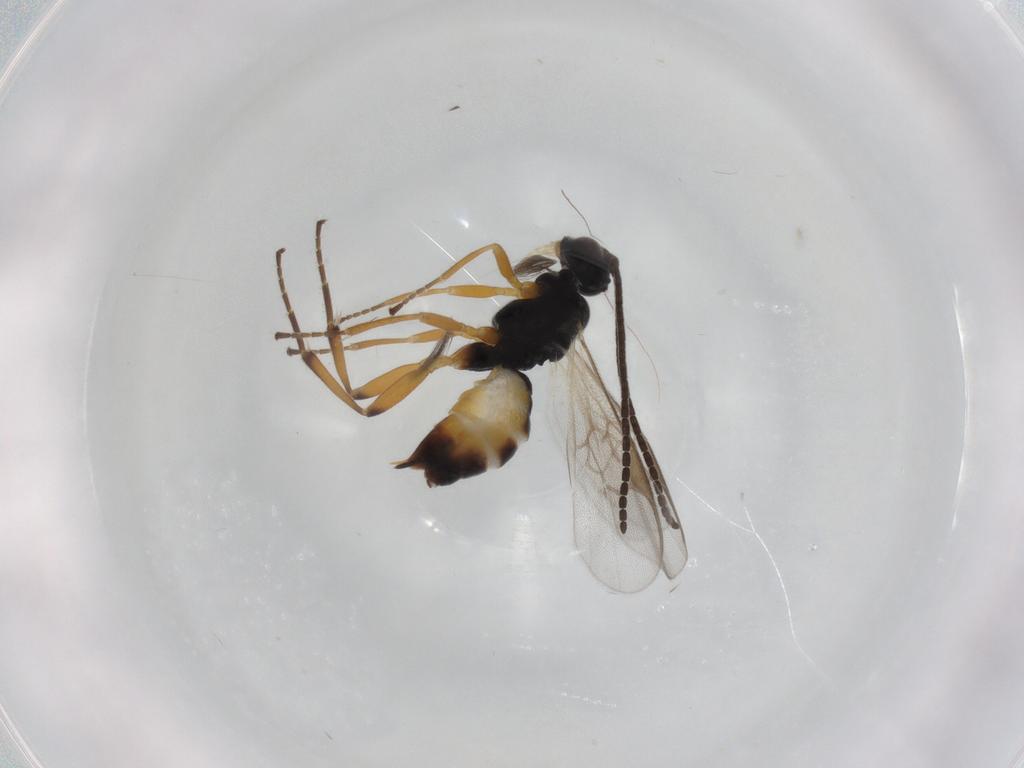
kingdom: Animalia
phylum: Arthropoda
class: Insecta
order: Hymenoptera
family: Braconidae
